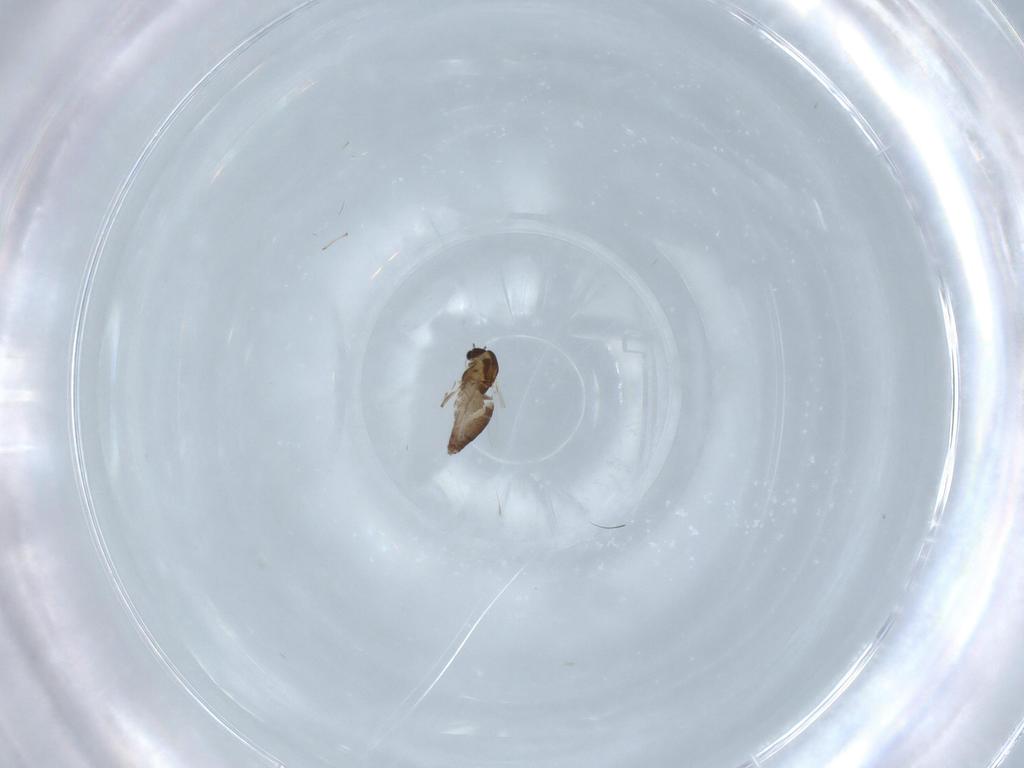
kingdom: Animalia
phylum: Arthropoda
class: Insecta
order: Diptera
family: Chironomidae
